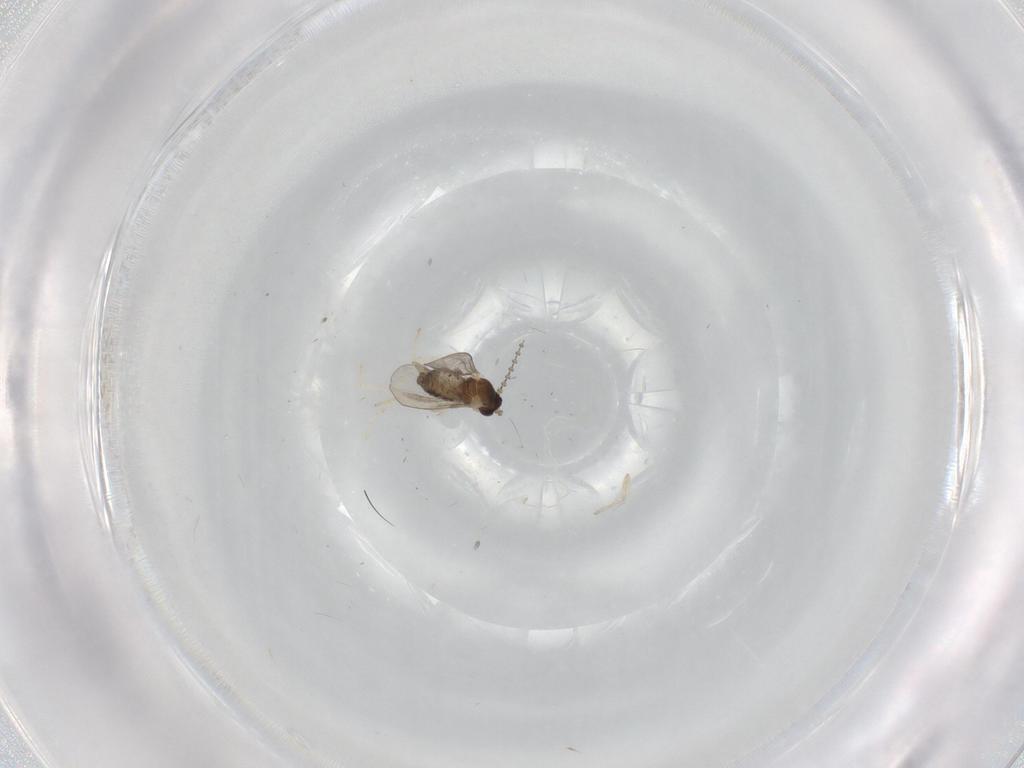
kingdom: Animalia
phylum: Arthropoda
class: Insecta
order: Diptera
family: Cecidomyiidae
